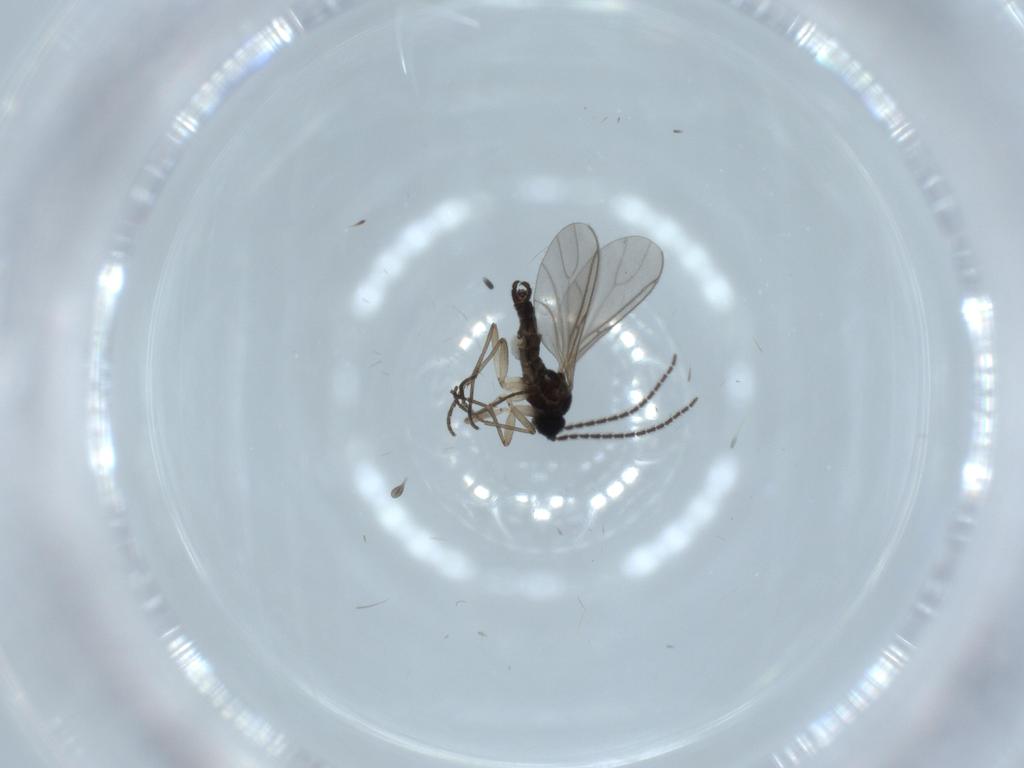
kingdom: Animalia
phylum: Arthropoda
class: Insecta
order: Diptera
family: Sciaridae
